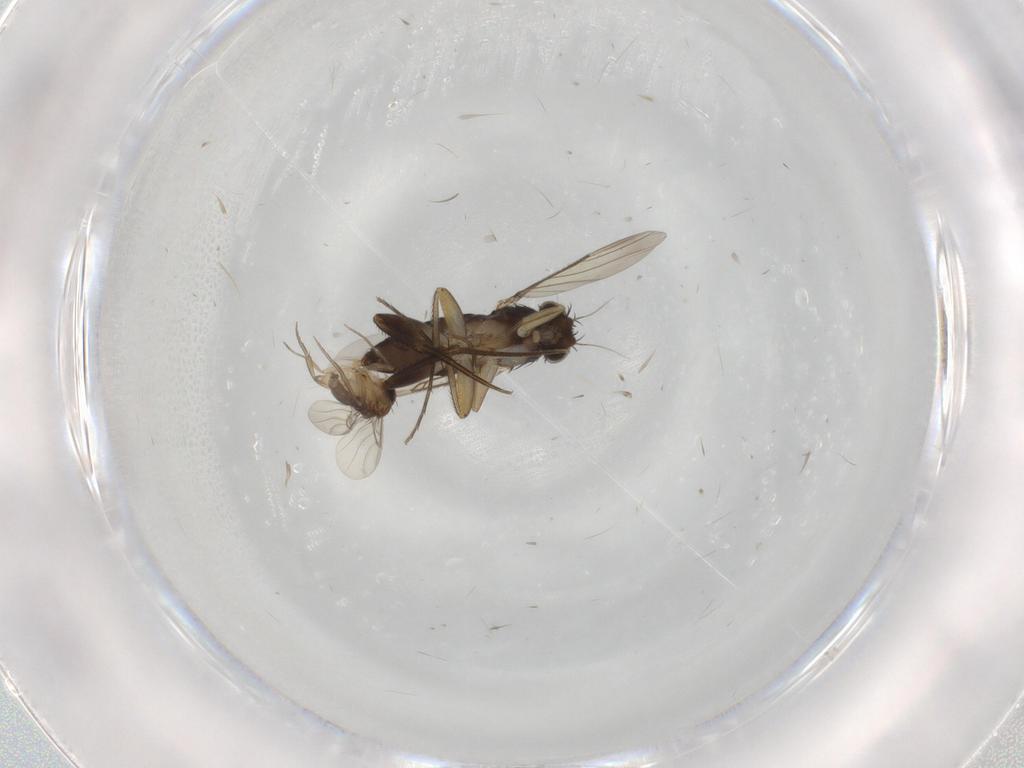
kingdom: Animalia
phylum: Arthropoda
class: Insecta
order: Diptera
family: Phoridae
